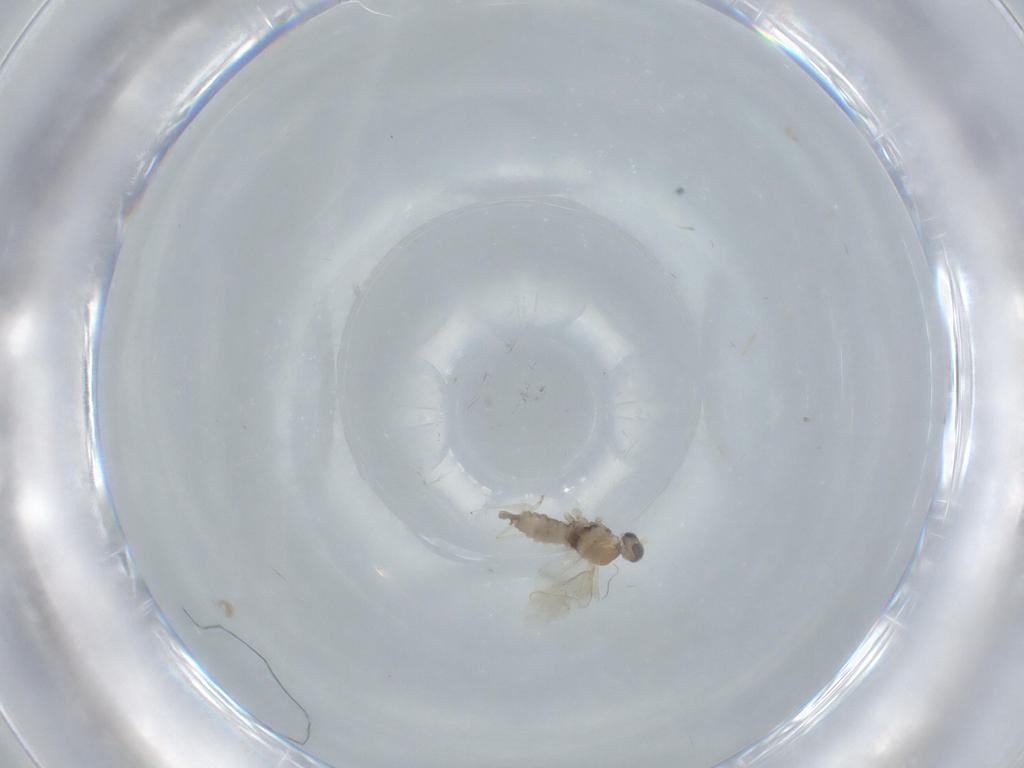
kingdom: Animalia
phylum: Arthropoda
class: Insecta
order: Diptera
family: Cecidomyiidae
